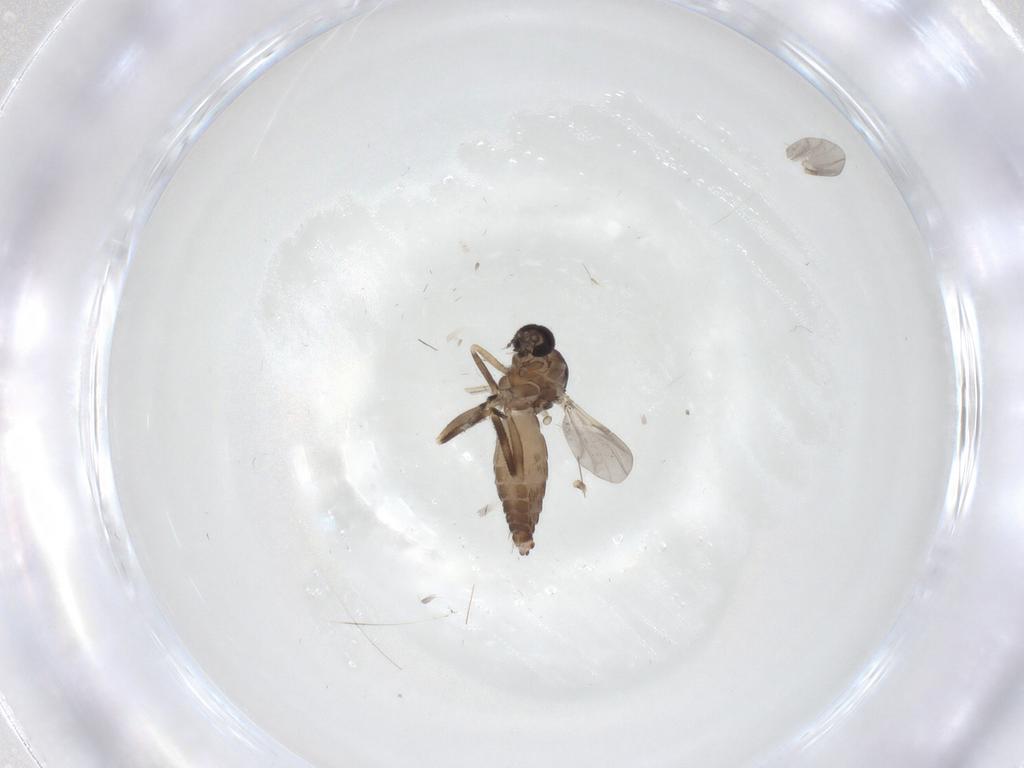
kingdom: Animalia
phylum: Arthropoda
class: Insecta
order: Diptera
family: Ceratopogonidae
